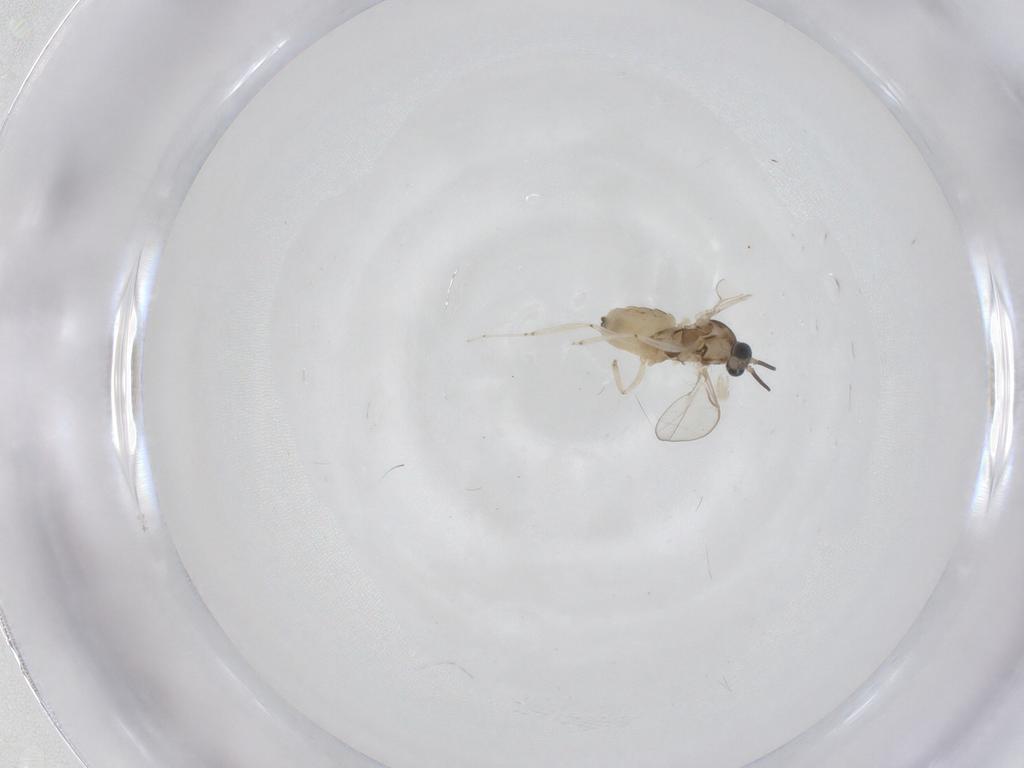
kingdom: Animalia
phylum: Arthropoda
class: Insecta
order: Diptera
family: Cecidomyiidae
